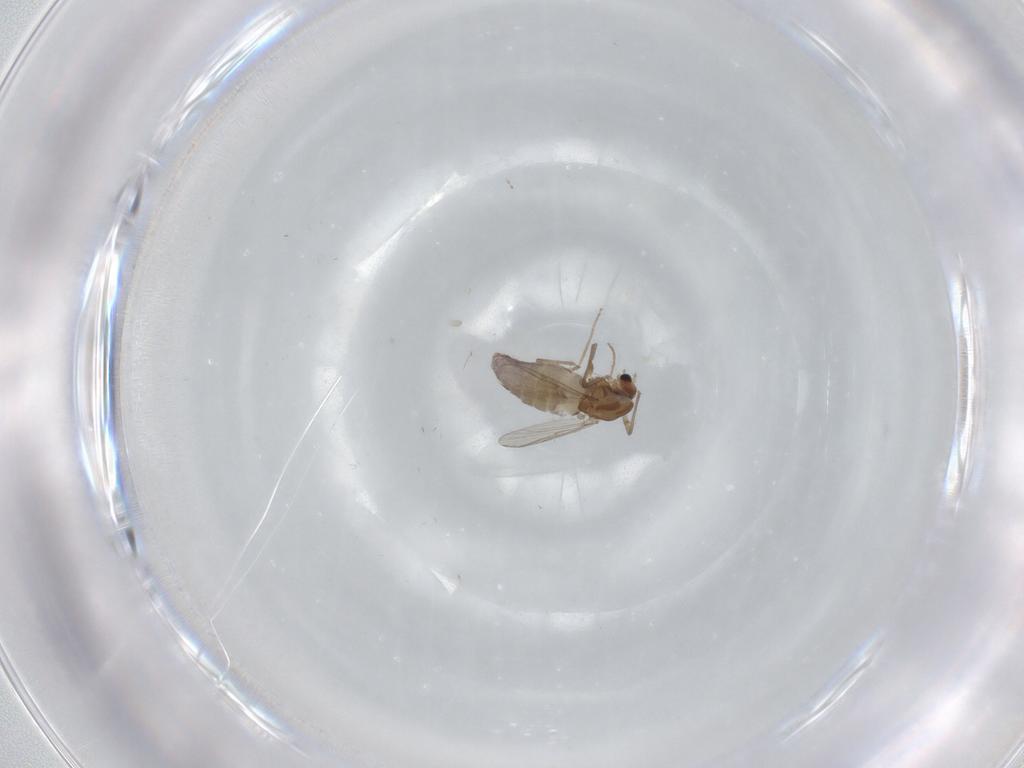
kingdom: Animalia
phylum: Arthropoda
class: Insecta
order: Diptera
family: Chironomidae
